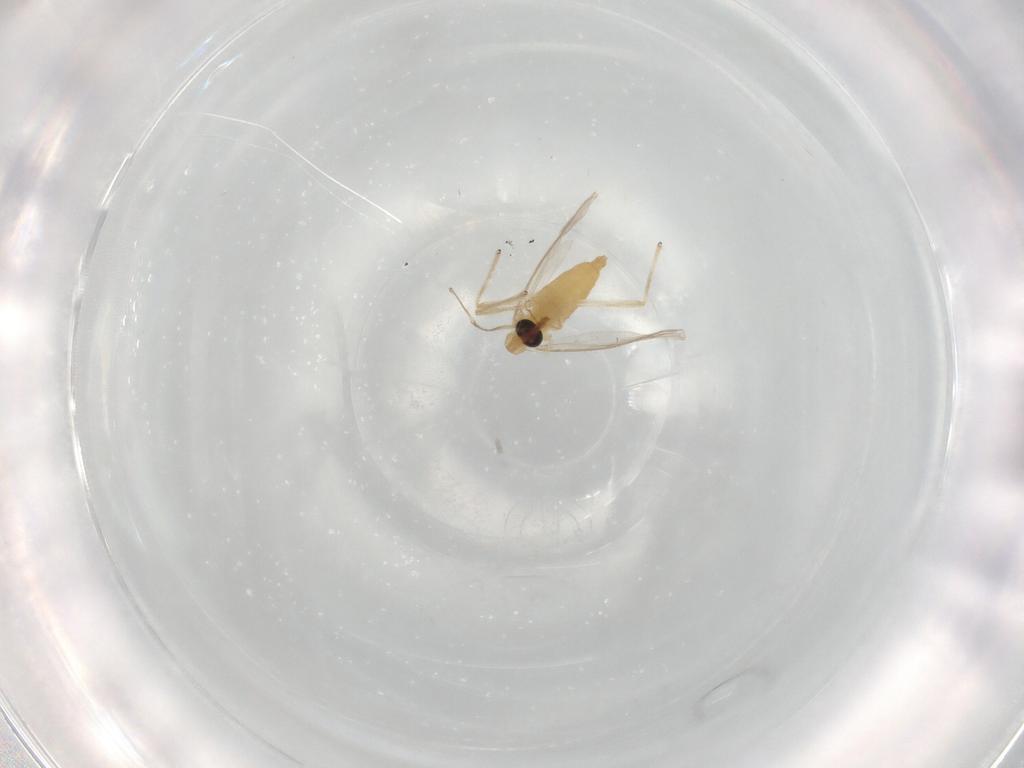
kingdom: Animalia
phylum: Arthropoda
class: Insecta
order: Diptera
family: Chironomidae
